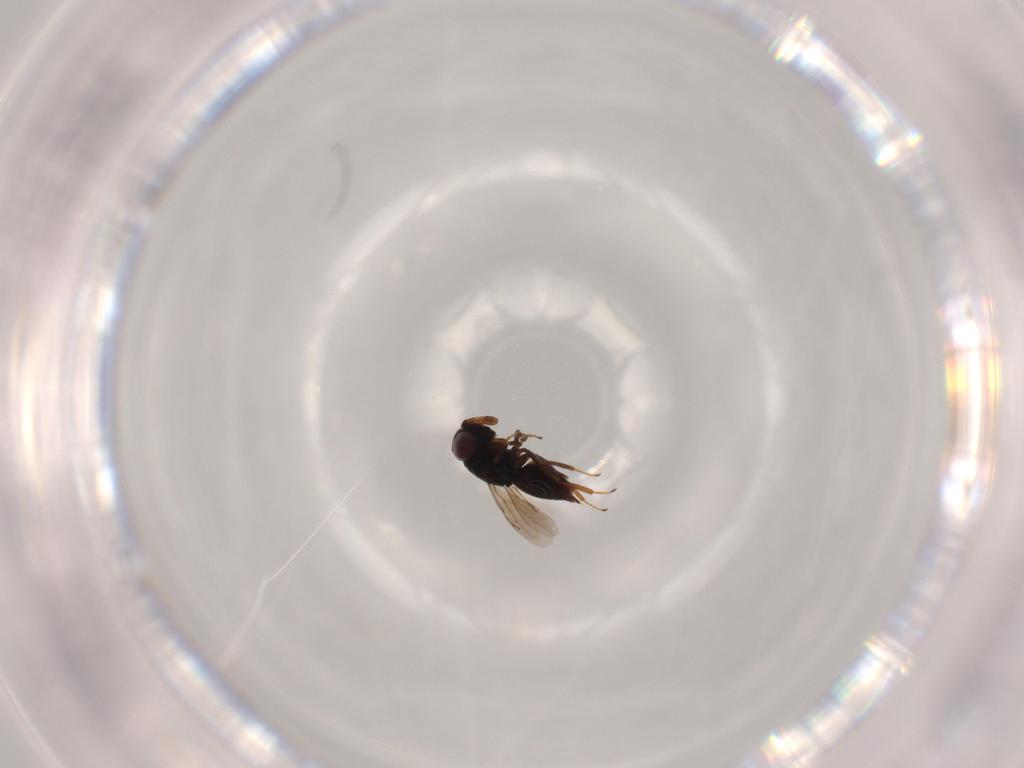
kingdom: Animalia
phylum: Arthropoda
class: Insecta
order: Hymenoptera
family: Eunotidae
